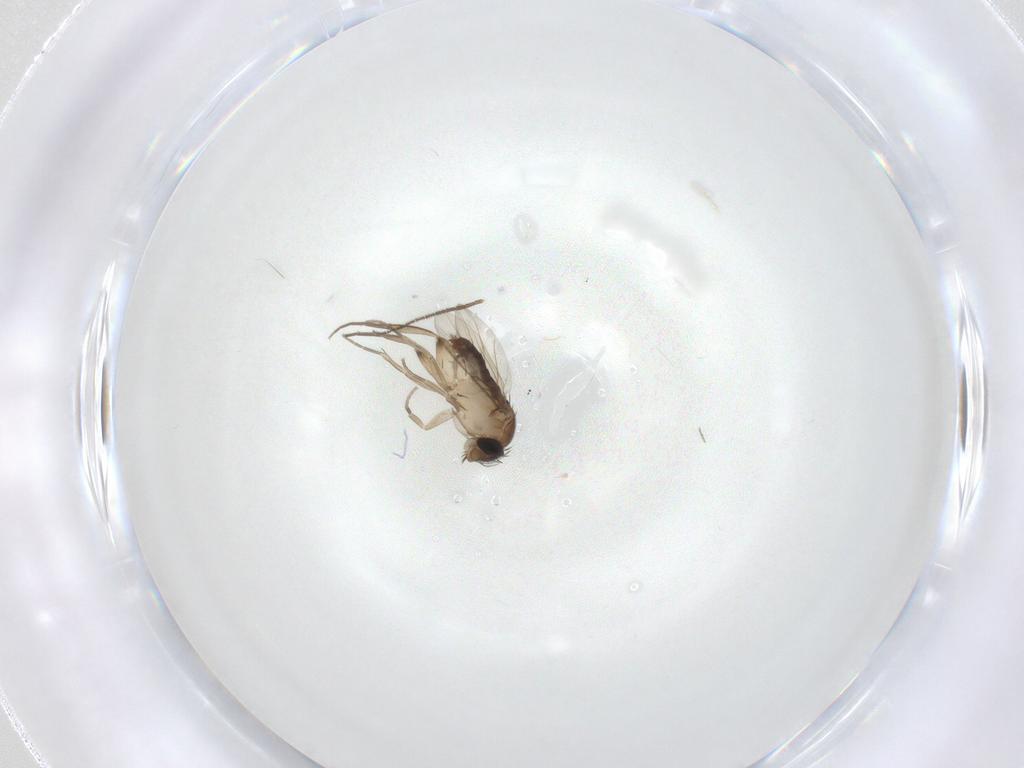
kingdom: Animalia
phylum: Arthropoda
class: Insecta
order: Diptera
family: Phoridae
